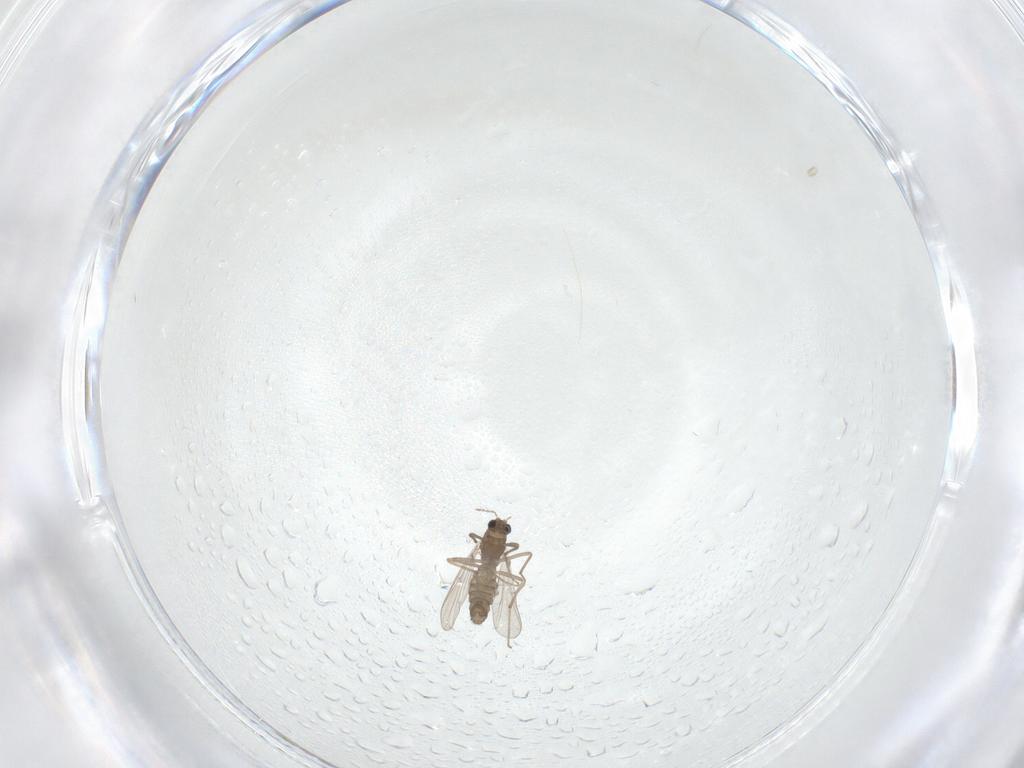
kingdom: Animalia
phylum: Arthropoda
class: Insecta
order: Diptera
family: Chironomidae
